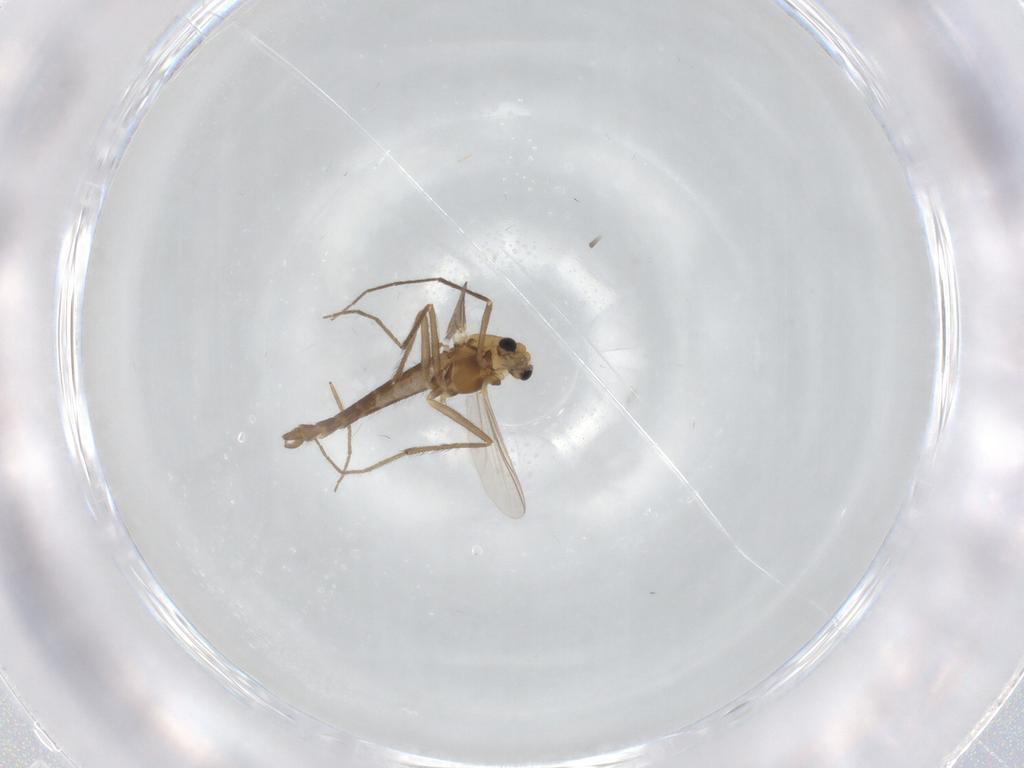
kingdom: Animalia
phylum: Arthropoda
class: Insecta
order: Diptera
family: Chironomidae
